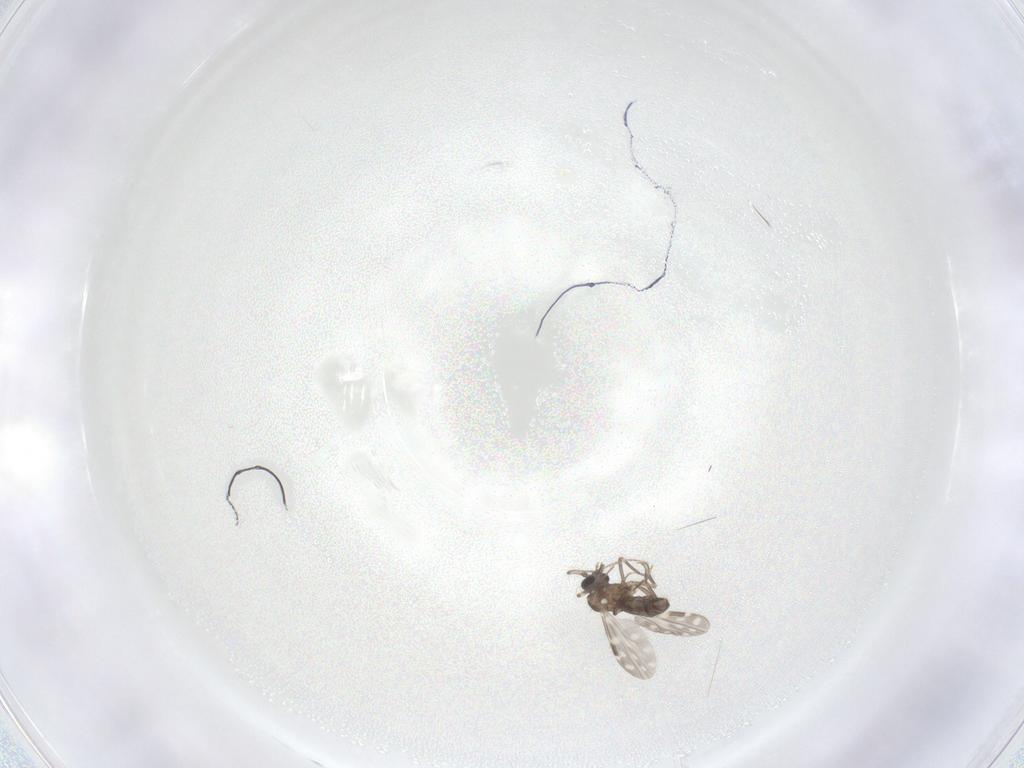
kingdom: Animalia
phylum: Arthropoda
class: Insecta
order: Diptera
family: Ceratopogonidae
